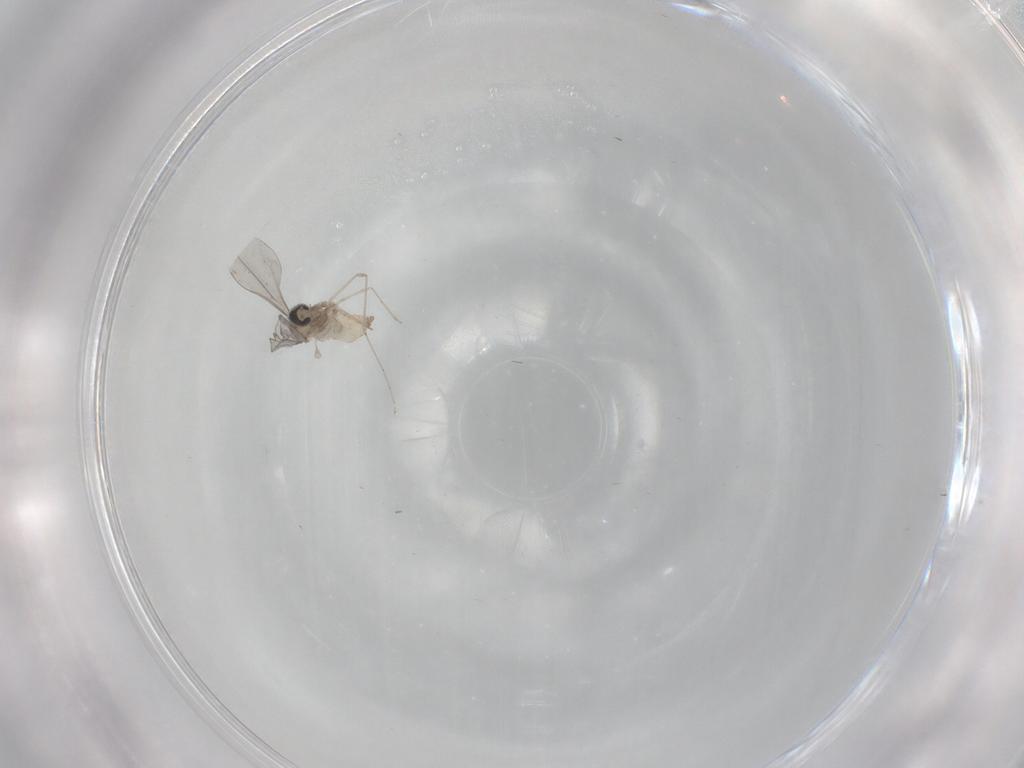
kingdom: Animalia
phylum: Arthropoda
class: Insecta
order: Diptera
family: Cecidomyiidae
